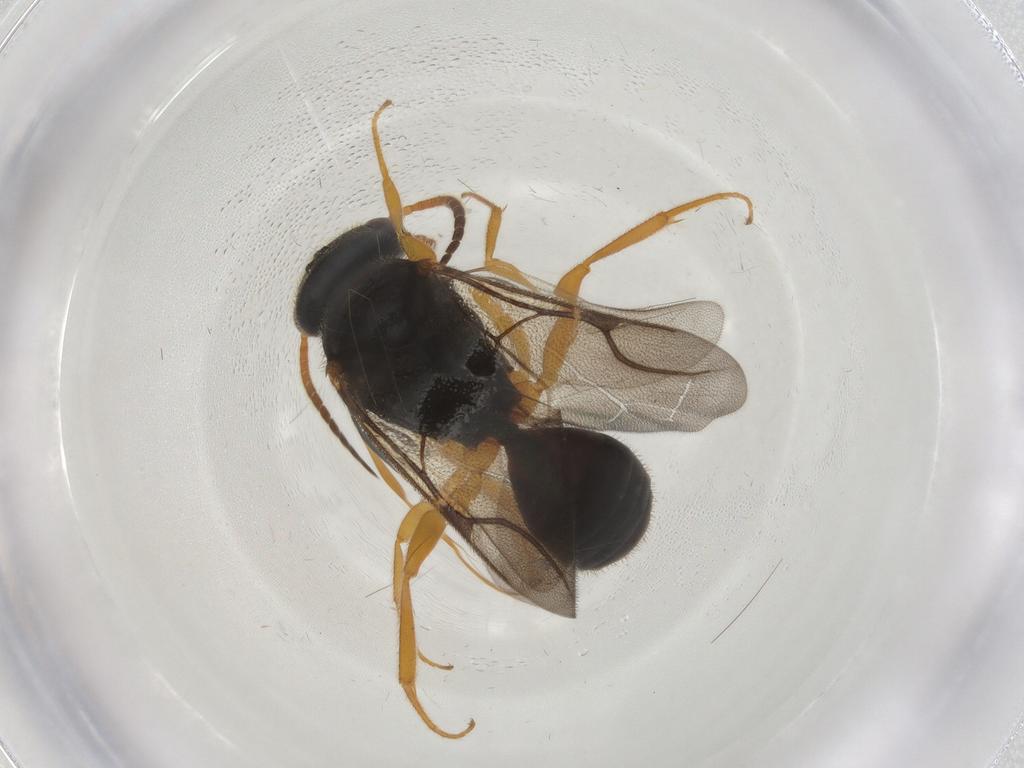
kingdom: Animalia
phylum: Arthropoda
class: Insecta
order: Hymenoptera
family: Bethylidae
